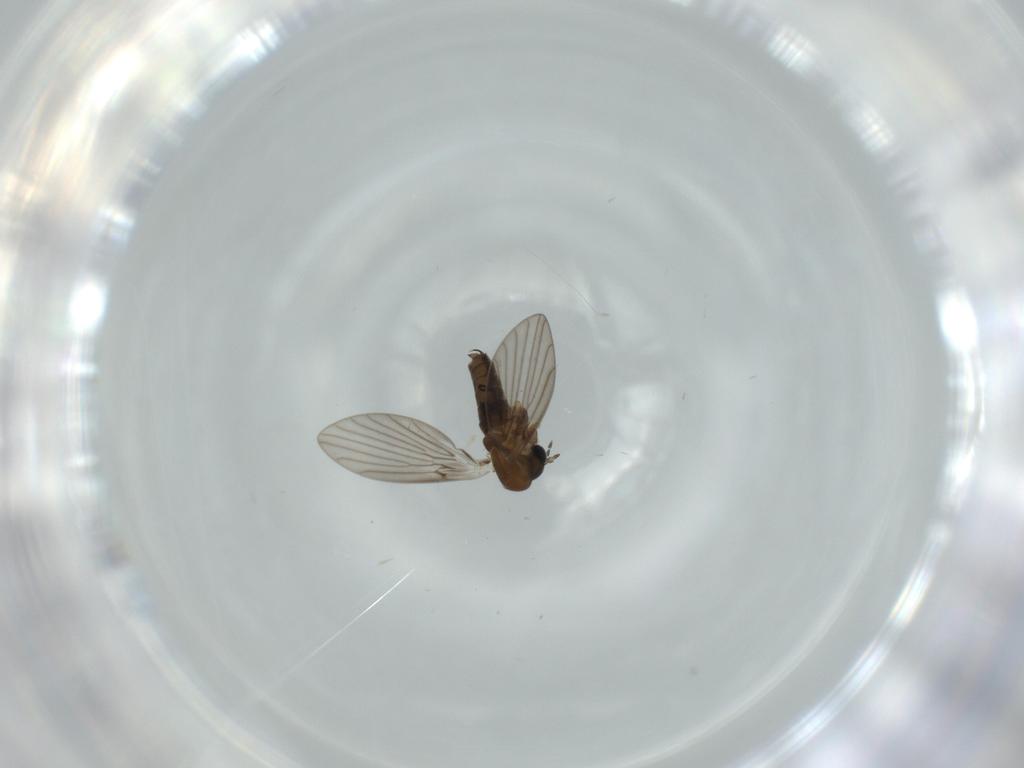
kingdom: Animalia
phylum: Arthropoda
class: Insecta
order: Diptera
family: Psychodidae
